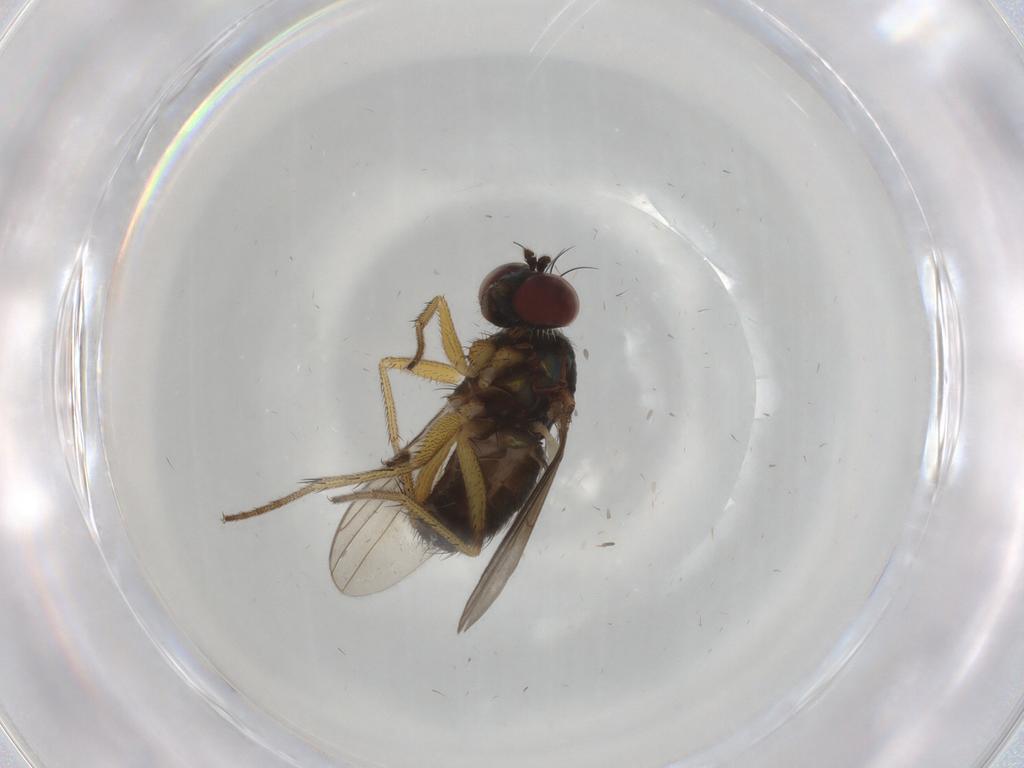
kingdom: Animalia
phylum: Arthropoda
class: Insecta
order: Diptera
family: Dolichopodidae
